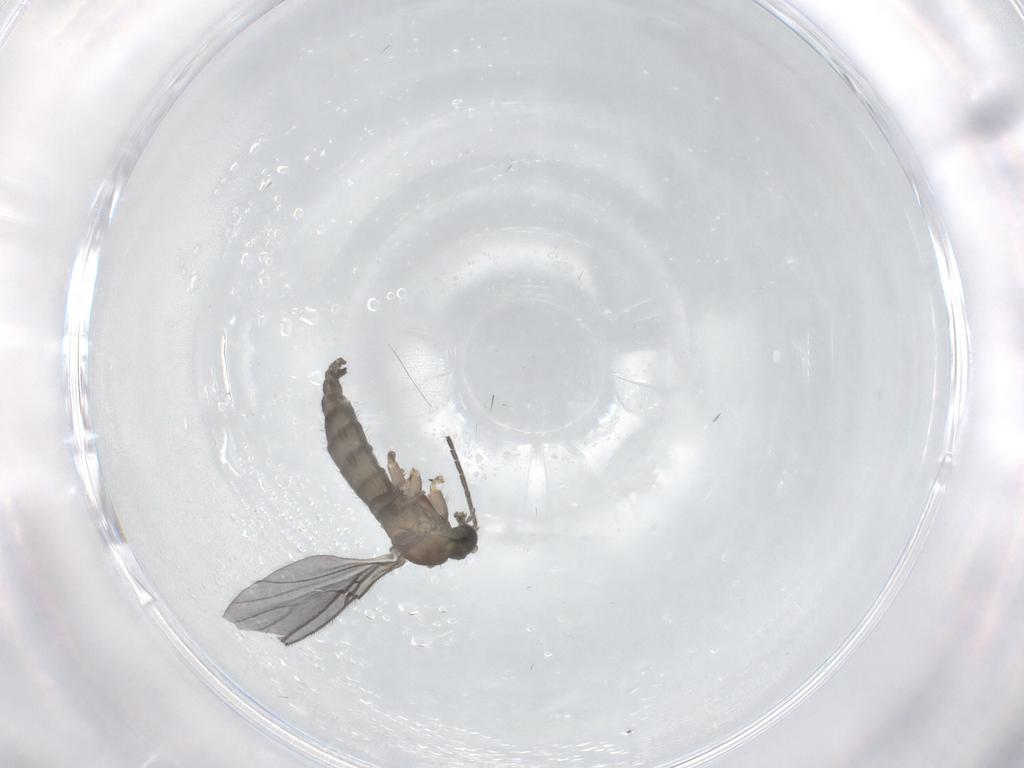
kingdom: Animalia
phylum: Arthropoda
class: Insecta
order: Diptera
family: Sciaridae
